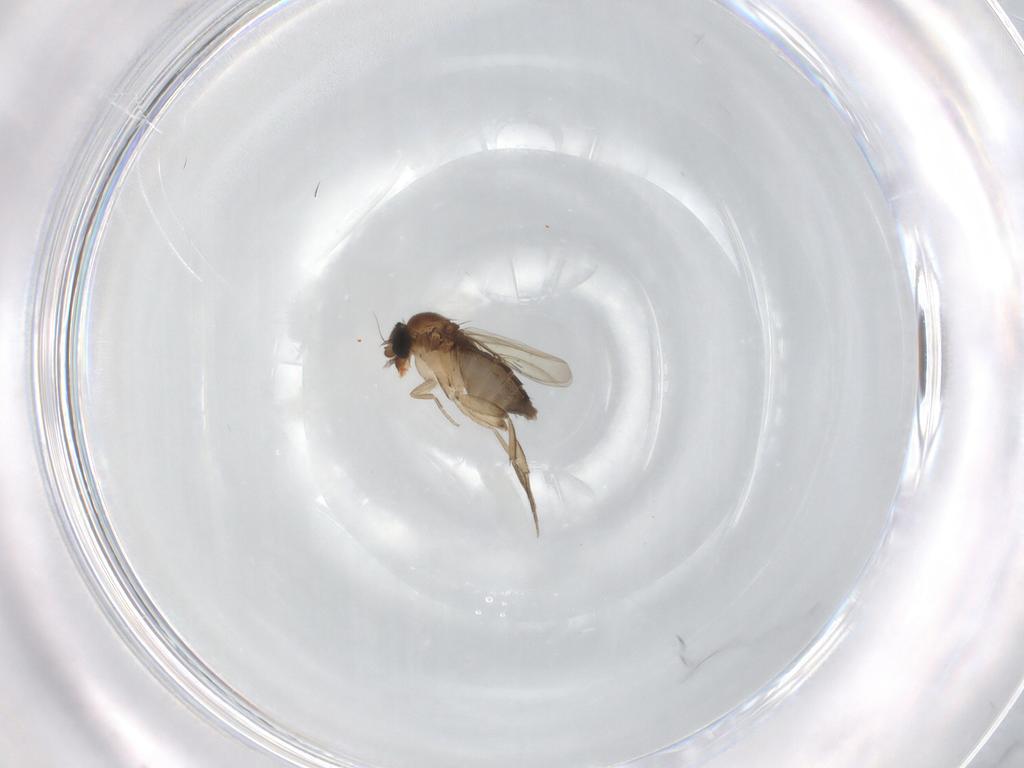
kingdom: Animalia
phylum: Arthropoda
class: Insecta
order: Diptera
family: Phoridae
